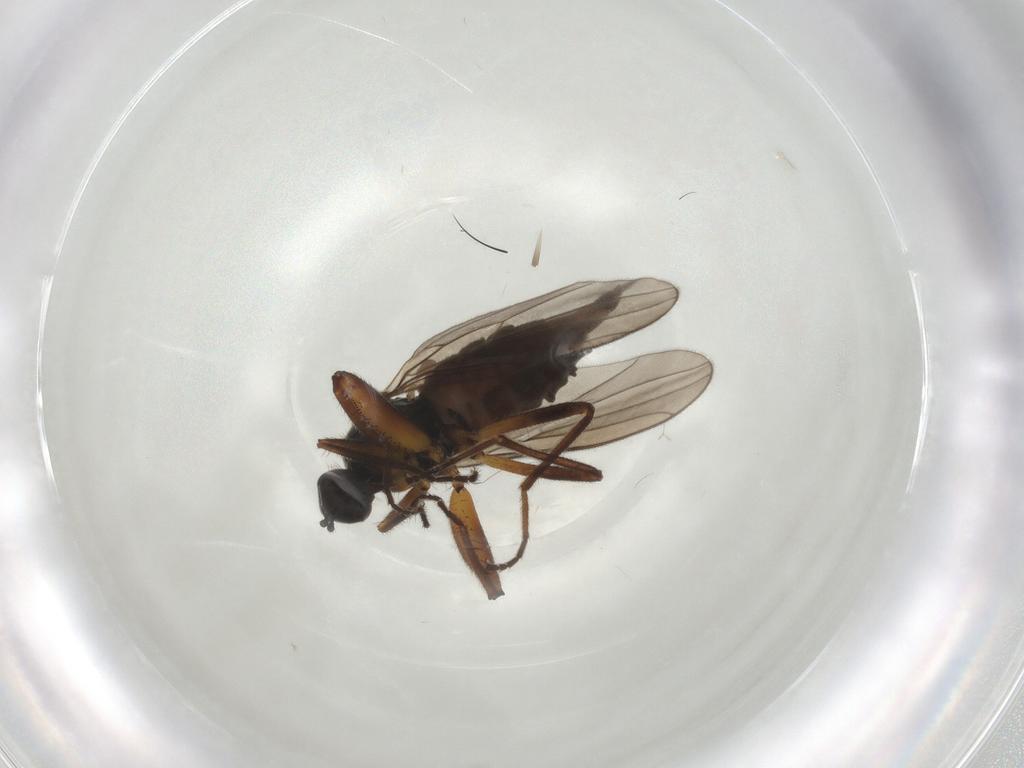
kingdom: Animalia
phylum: Arthropoda
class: Insecta
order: Diptera
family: Hybotidae
